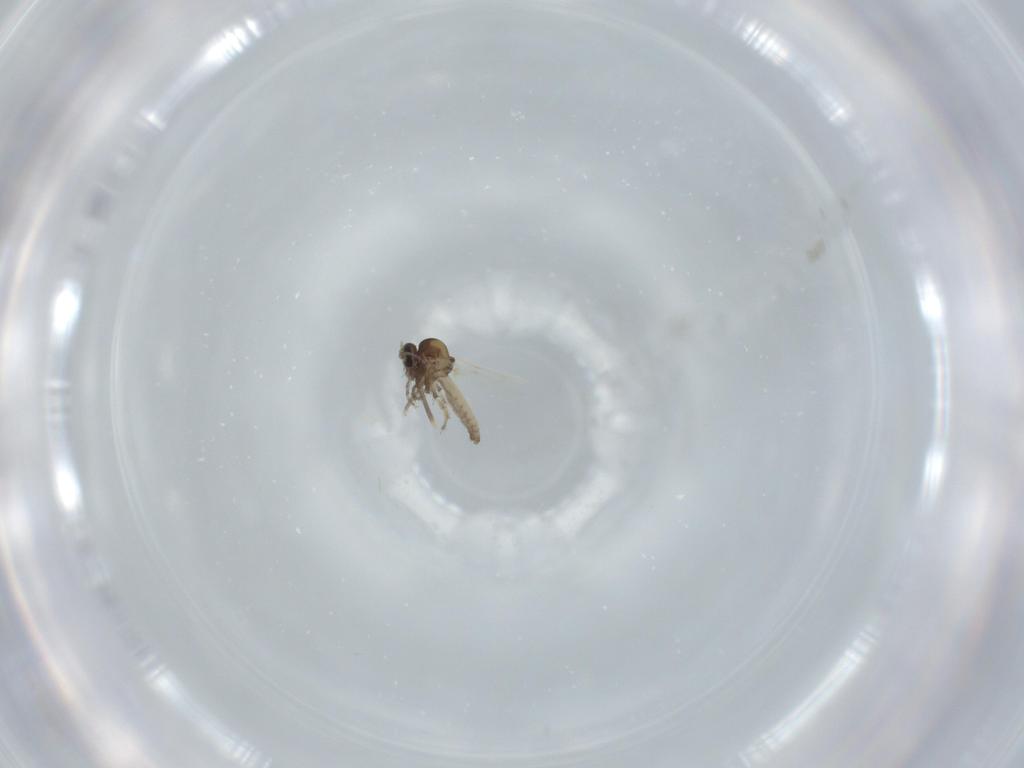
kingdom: Animalia
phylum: Arthropoda
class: Insecta
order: Diptera
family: Ceratopogonidae
